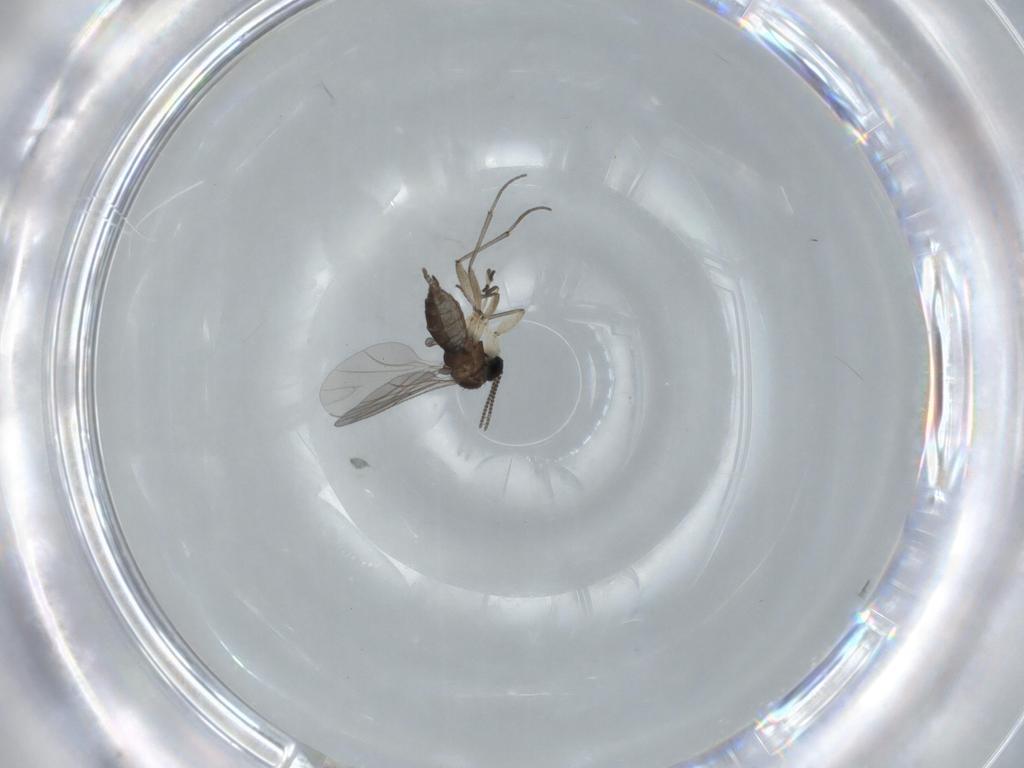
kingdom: Animalia
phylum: Arthropoda
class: Insecta
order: Diptera
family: Sciaridae
